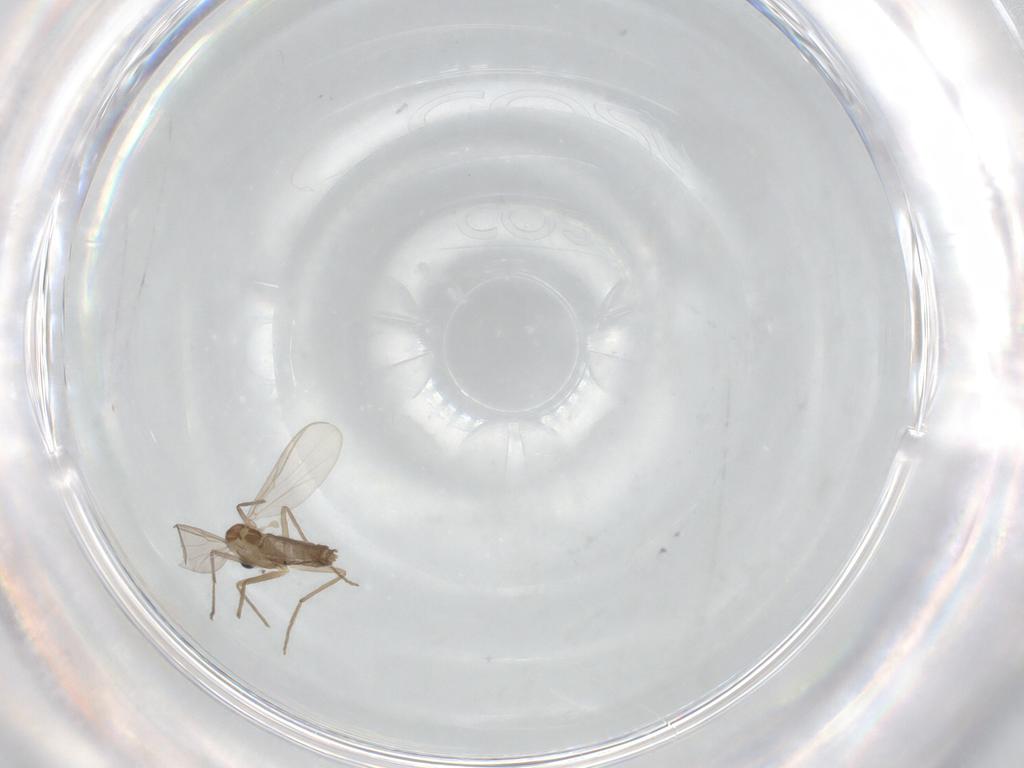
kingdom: Animalia
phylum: Arthropoda
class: Insecta
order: Diptera
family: Chironomidae
